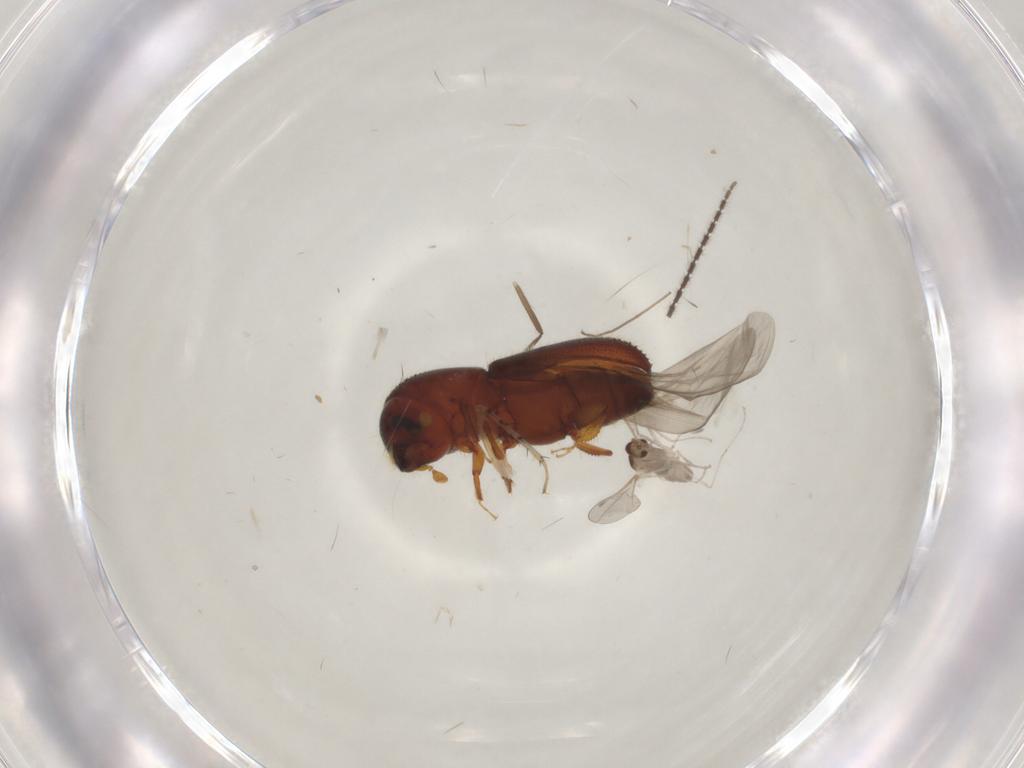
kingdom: Animalia
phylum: Arthropoda
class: Insecta
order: Diptera
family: Cecidomyiidae
